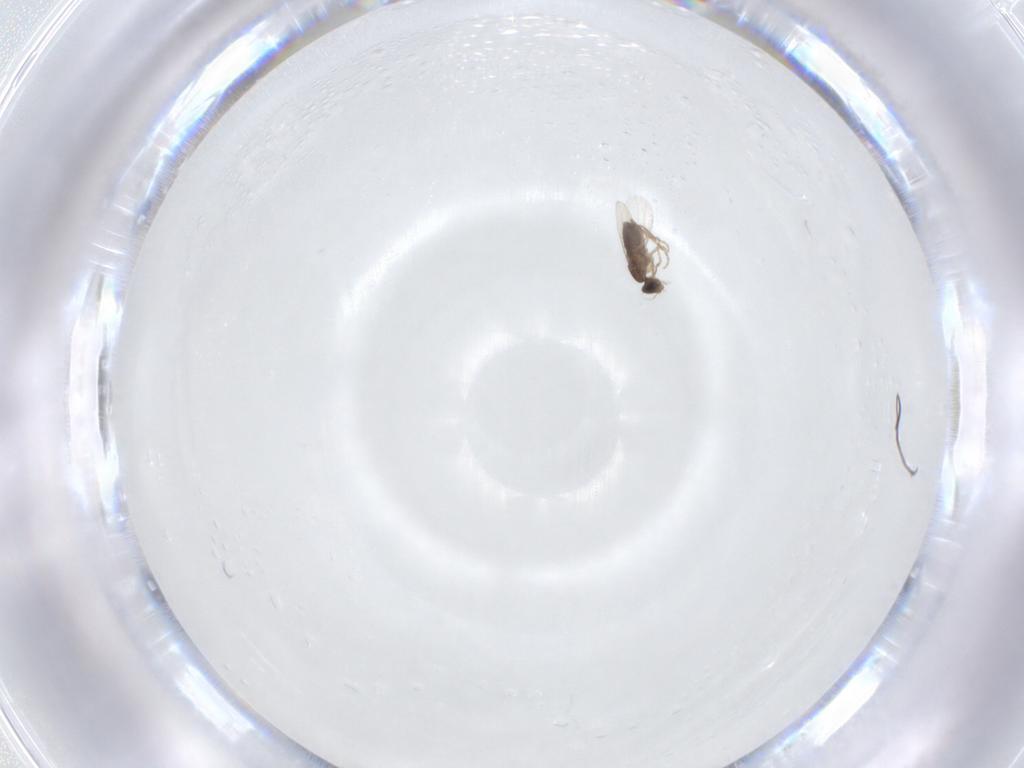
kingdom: Animalia
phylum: Arthropoda
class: Insecta
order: Diptera
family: Phoridae
